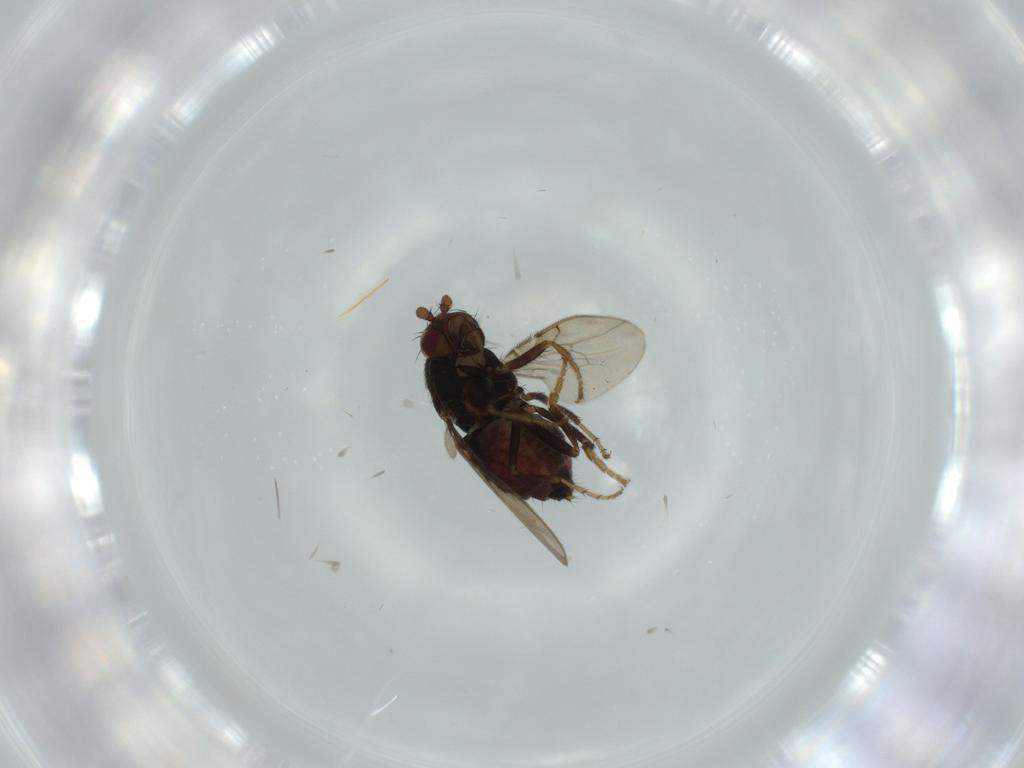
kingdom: Animalia
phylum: Arthropoda
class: Insecta
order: Diptera
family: Sphaeroceridae
